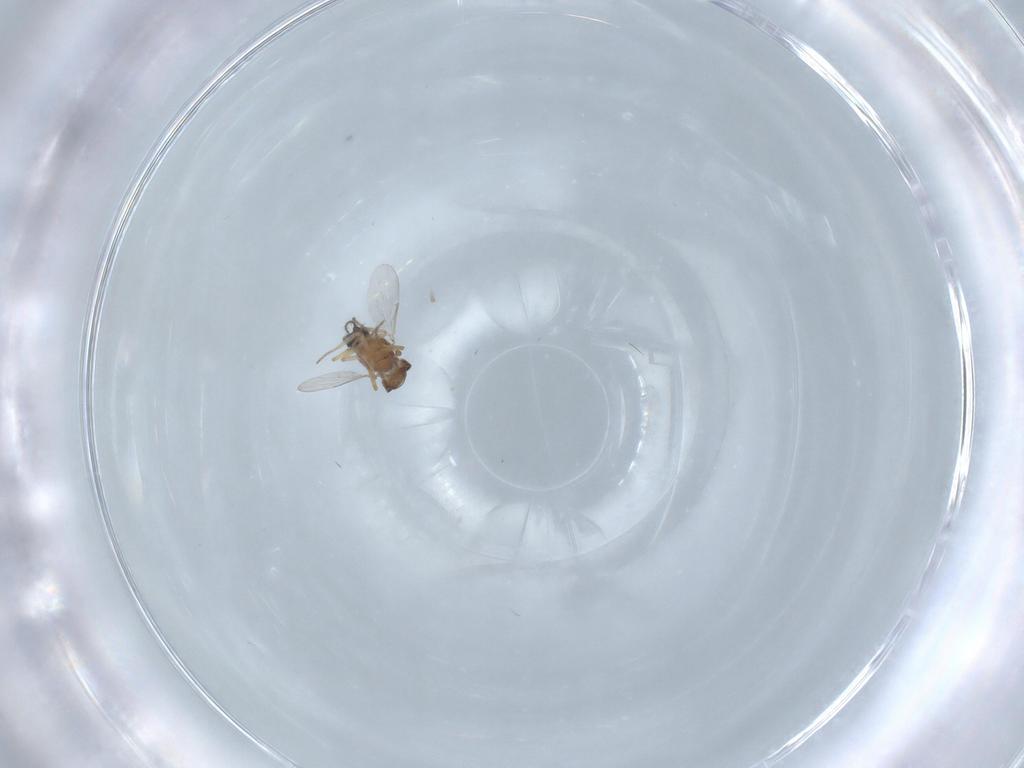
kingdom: Animalia
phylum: Arthropoda
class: Insecta
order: Diptera
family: Ceratopogonidae
